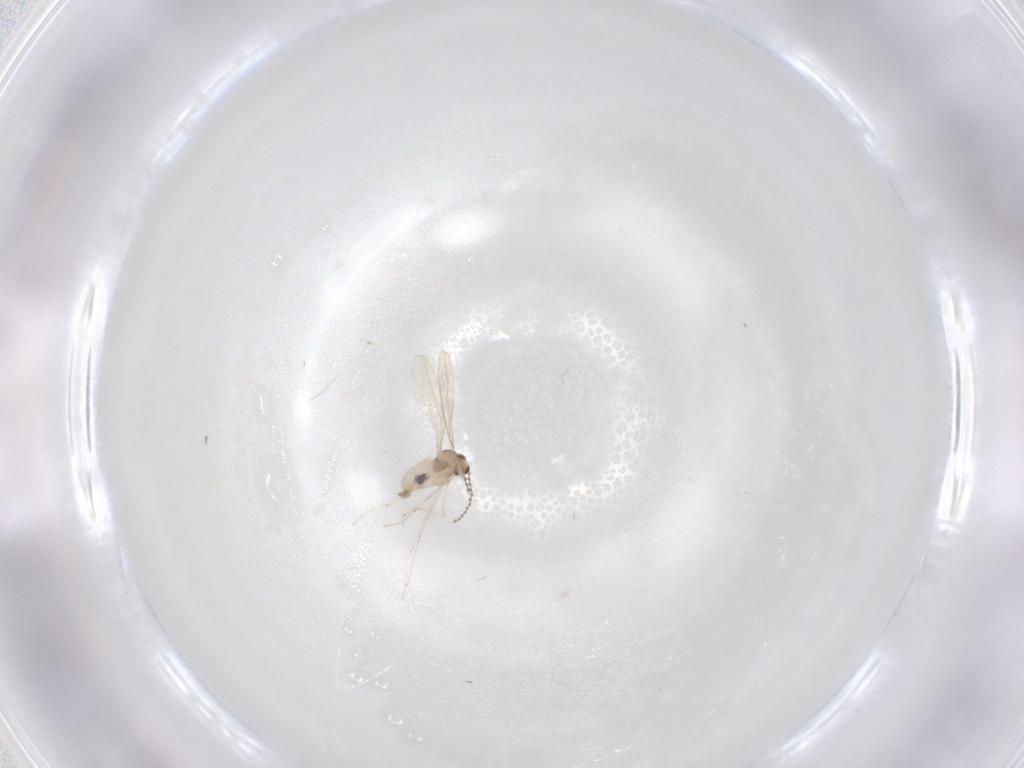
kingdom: Animalia
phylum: Arthropoda
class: Insecta
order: Diptera
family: Cecidomyiidae
